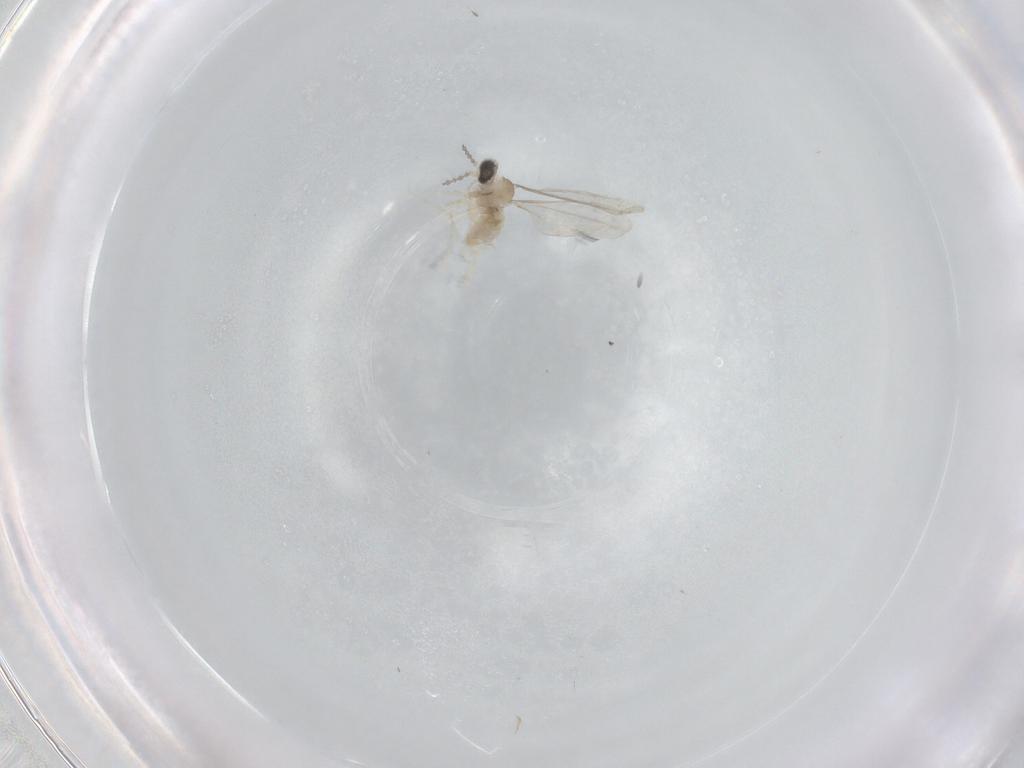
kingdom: Animalia
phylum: Arthropoda
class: Insecta
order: Diptera
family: Cecidomyiidae
